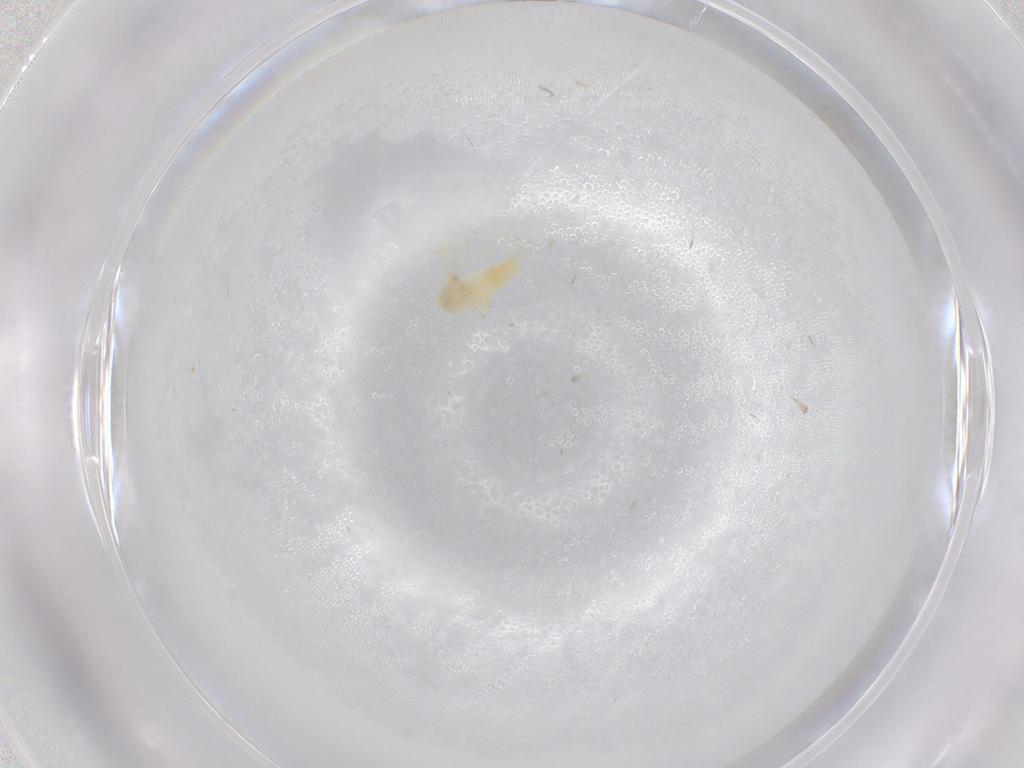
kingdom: Animalia
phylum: Arthropoda
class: Insecta
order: Hemiptera
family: Aleyrodidae
